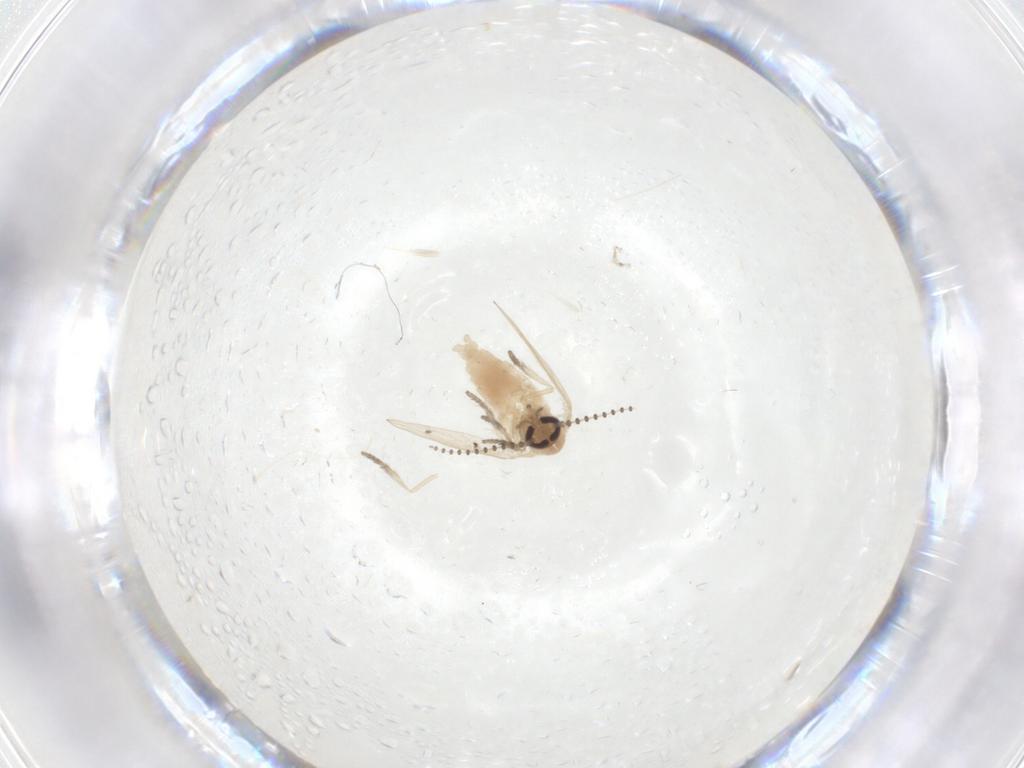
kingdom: Animalia
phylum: Arthropoda
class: Insecta
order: Diptera
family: Psychodidae
